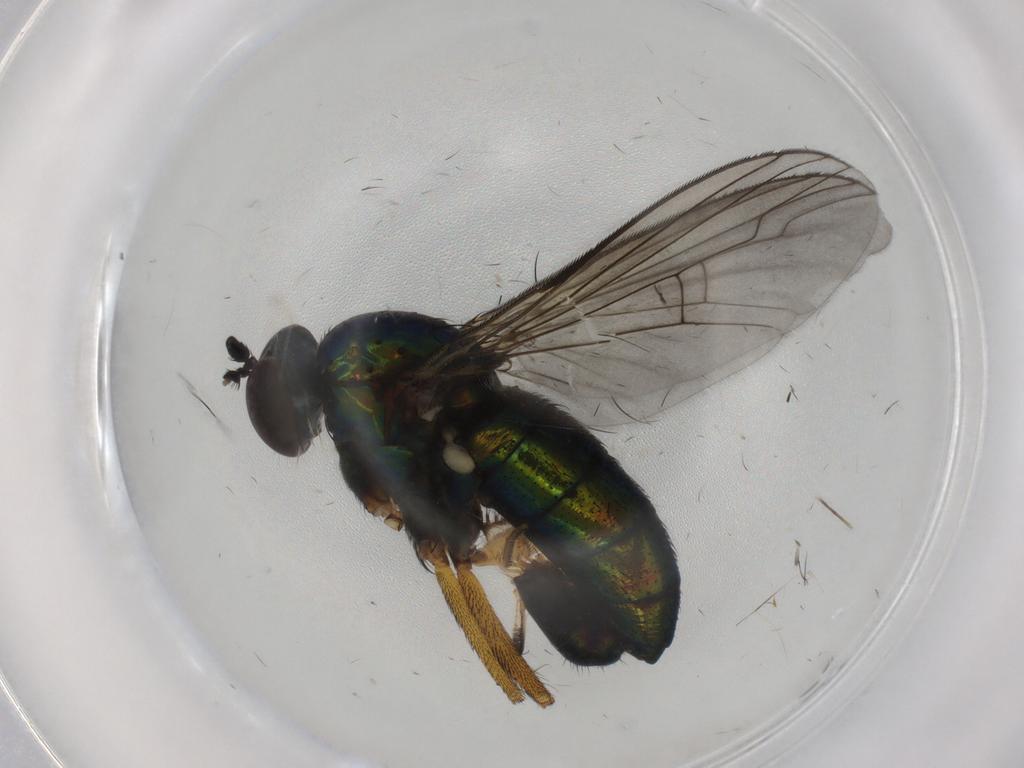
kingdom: Animalia
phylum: Arthropoda
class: Insecta
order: Diptera
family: Dolichopodidae
